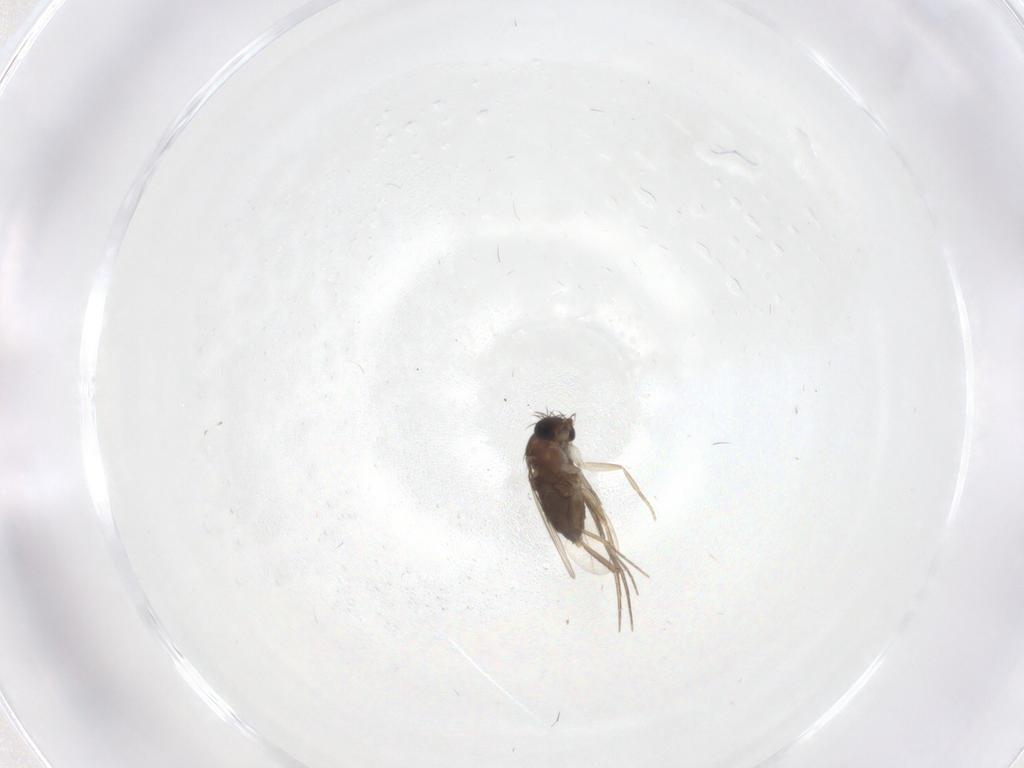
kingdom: Animalia
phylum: Arthropoda
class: Insecta
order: Diptera
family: Phoridae
